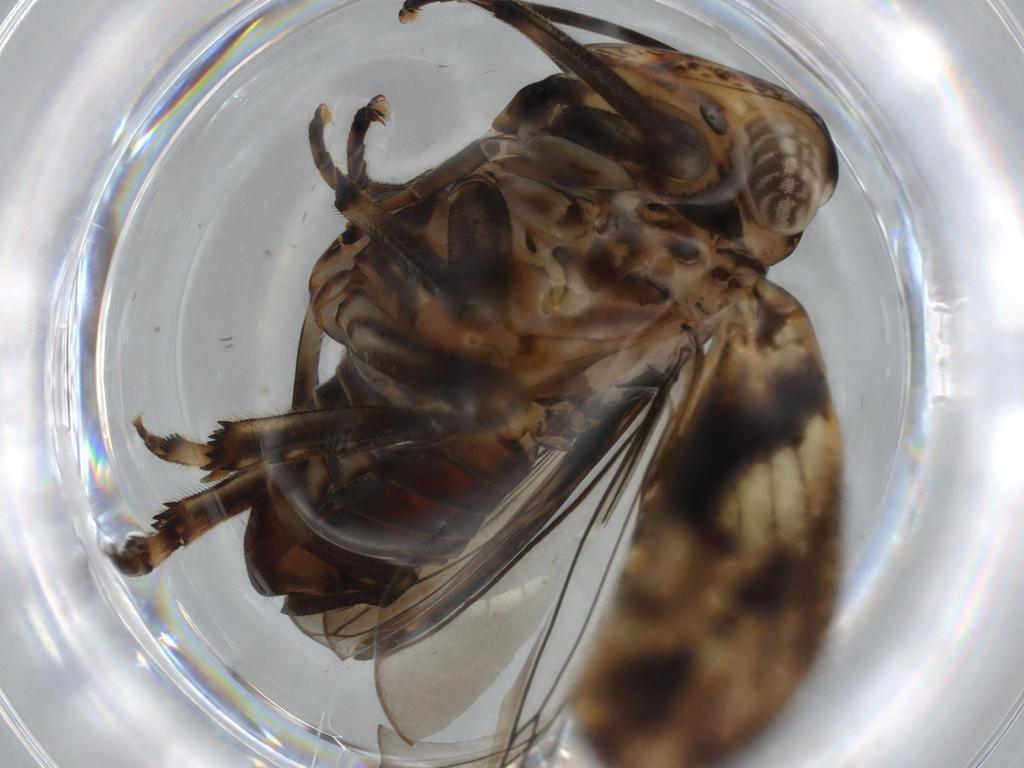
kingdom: Animalia
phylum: Arthropoda
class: Insecta
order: Hemiptera
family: Issidae
